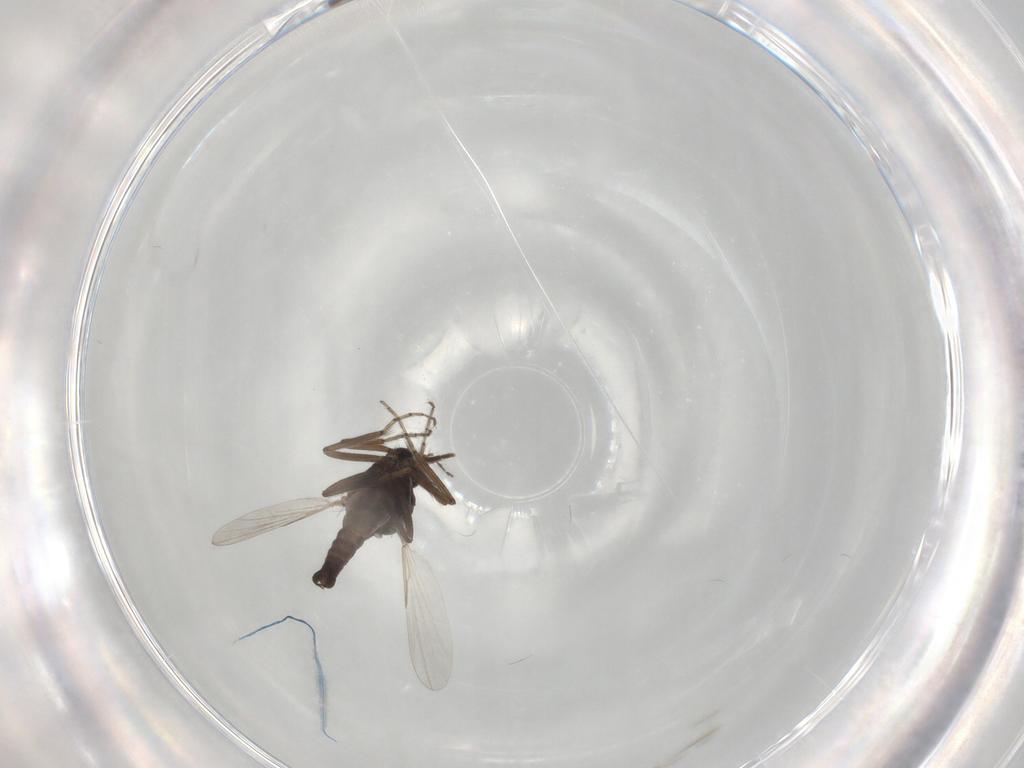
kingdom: Animalia
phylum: Arthropoda
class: Insecta
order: Diptera
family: Ceratopogonidae
